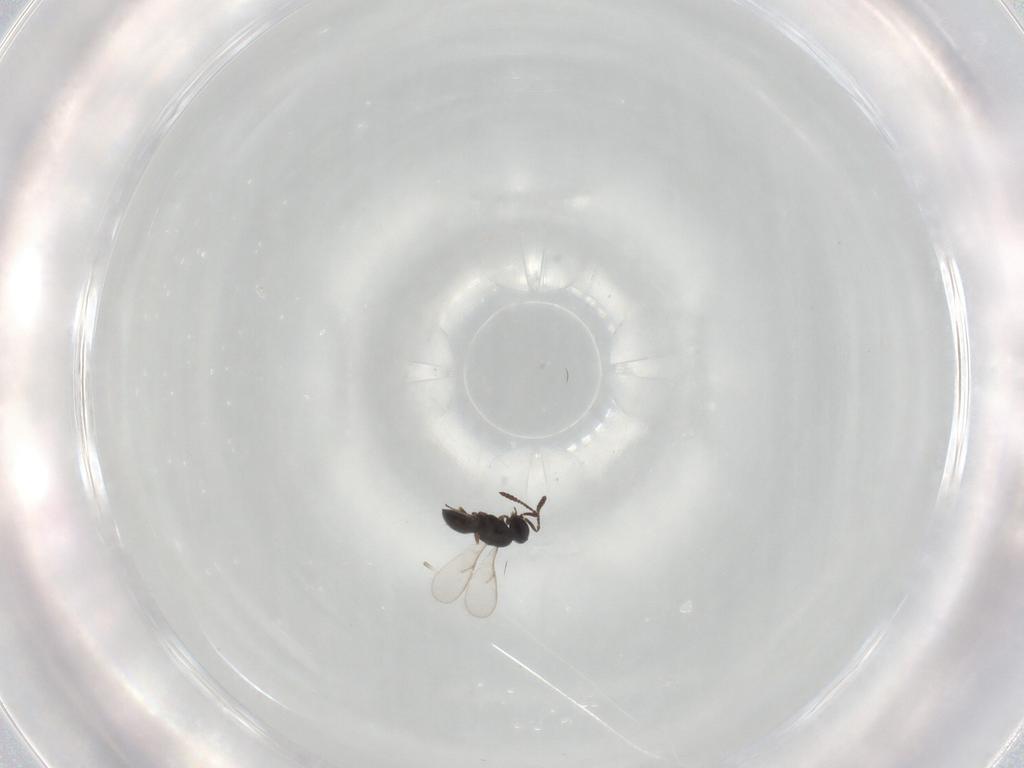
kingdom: Animalia
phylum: Arthropoda
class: Insecta
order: Hymenoptera
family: Scelionidae
